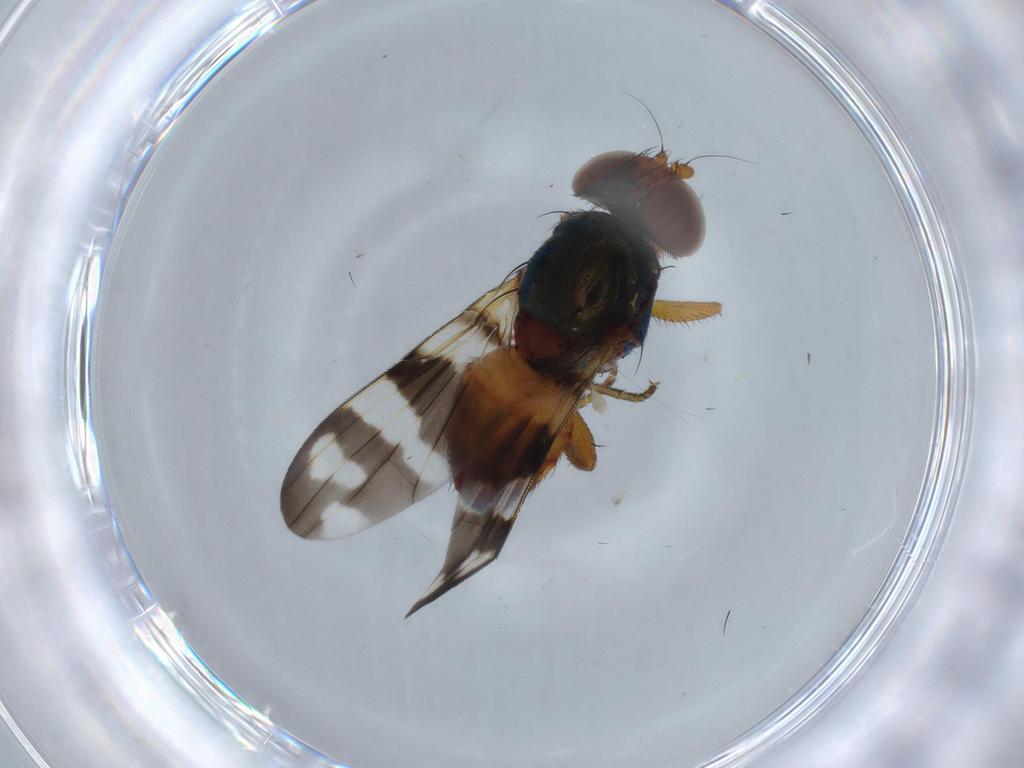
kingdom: Animalia
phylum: Arthropoda
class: Insecta
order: Diptera
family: Ulidiidae
